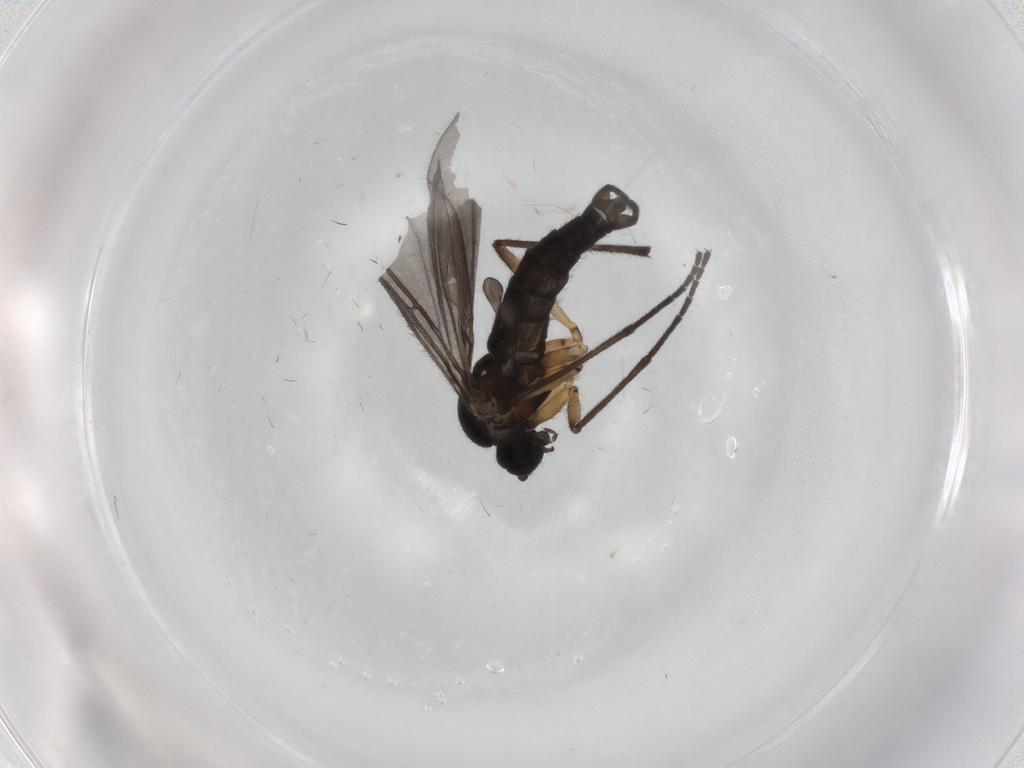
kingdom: Animalia
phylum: Arthropoda
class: Insecta
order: Diptera
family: Sciaridae
